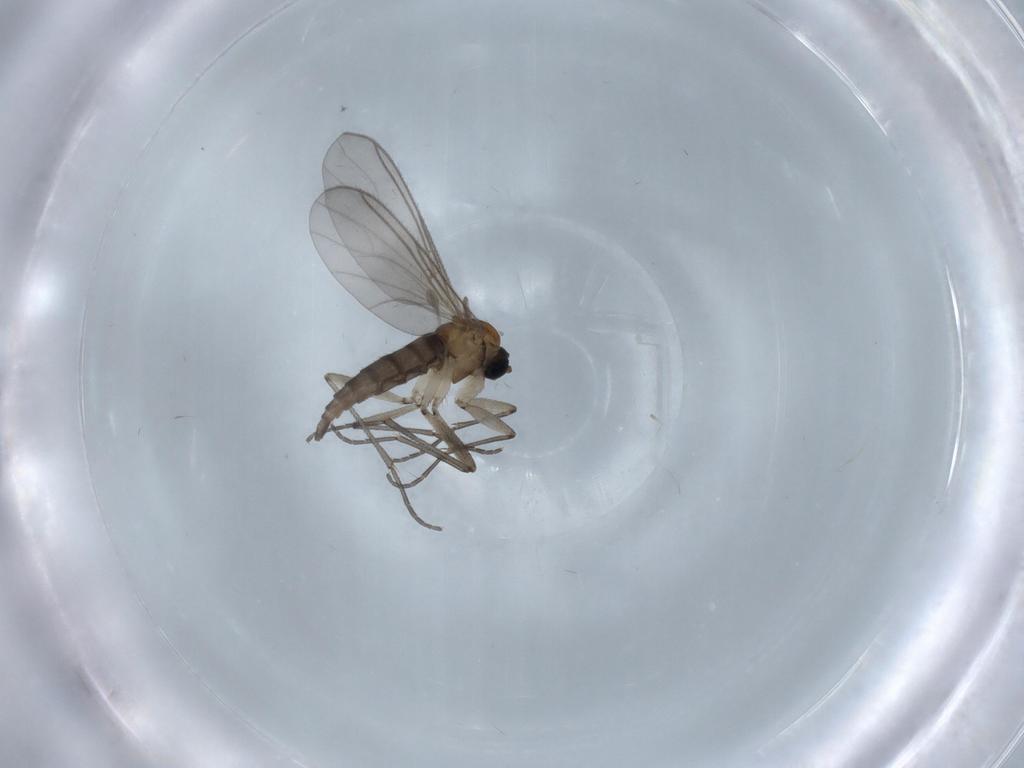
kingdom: Animalia
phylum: Arthropoda
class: Insecta
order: Diptera
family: Sciaridae
